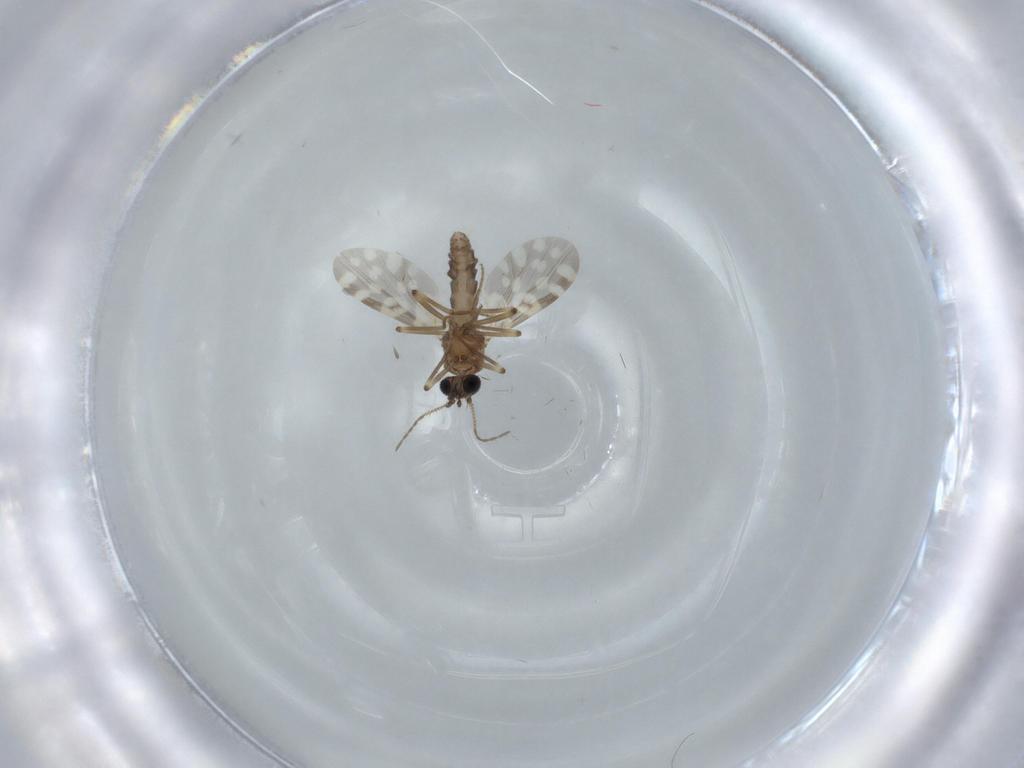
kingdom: Animalia
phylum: Arthropoda
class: Insecta
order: Diptera
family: Ceratopogonidae
